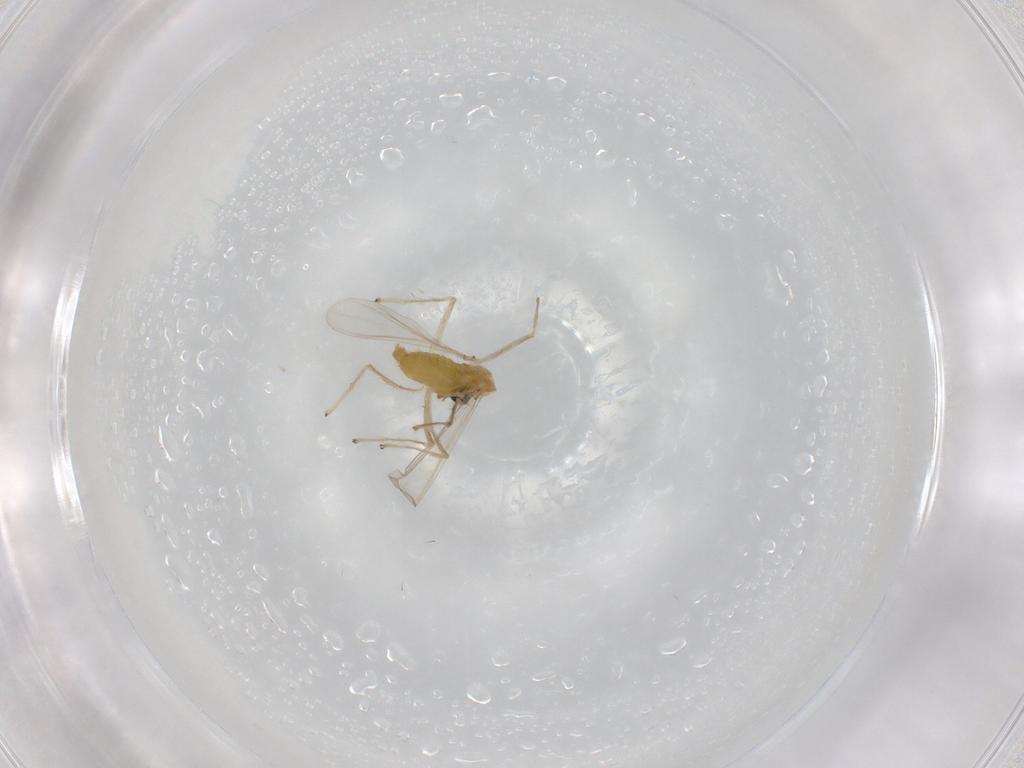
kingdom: Animalia
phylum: Arthropoda
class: Insecta
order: Diptera
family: Chironomidae
